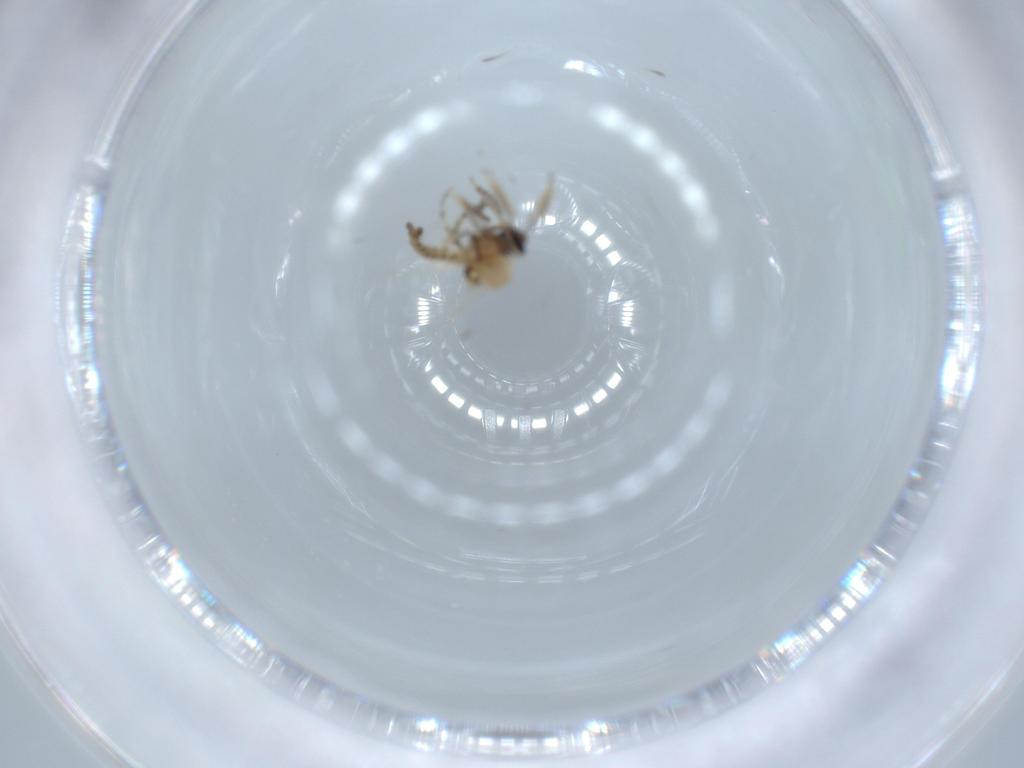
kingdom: Animalia
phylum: Arthropoda
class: Insecta
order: Diptera
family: Ceratopogonidae
